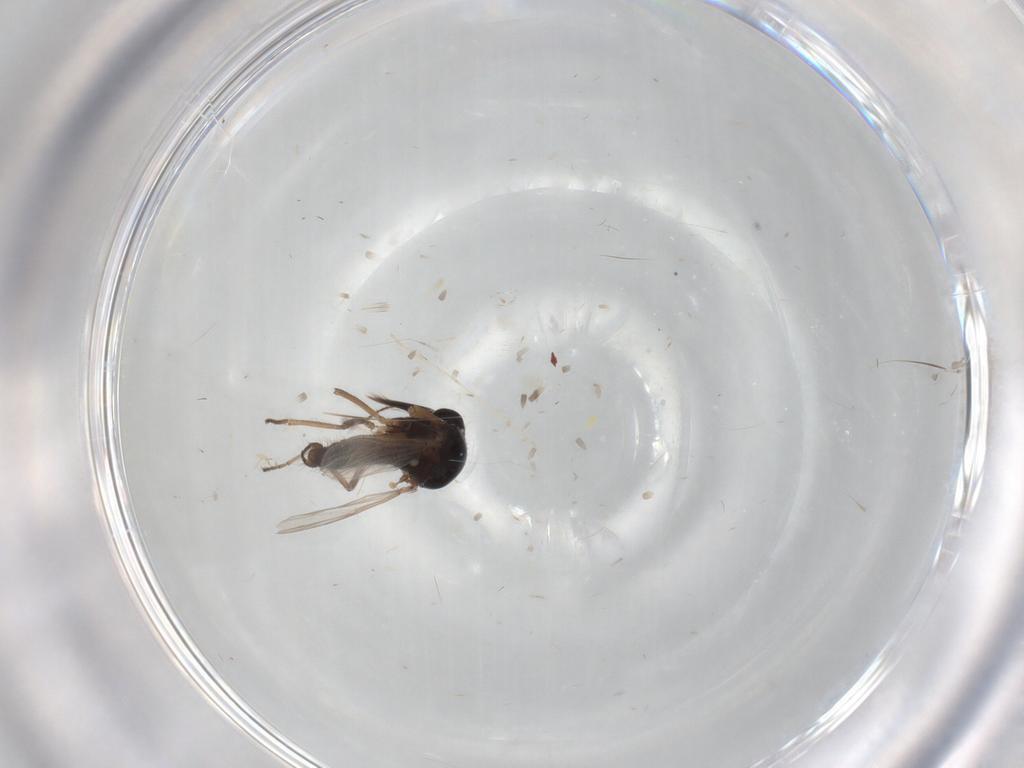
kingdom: Animalia
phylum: Arthropoda
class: Insecta
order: Diptera
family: Ceratopogonidae
